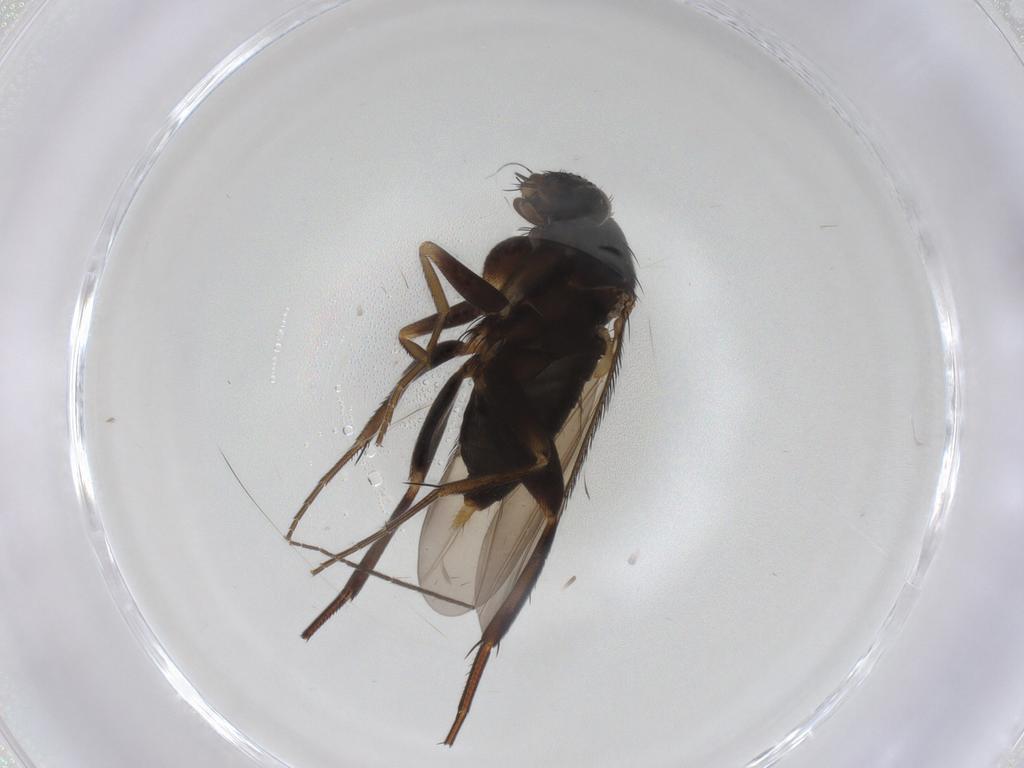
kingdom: Animalia
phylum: Arthropoda
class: Insecta
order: Diptera
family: Phoridae
